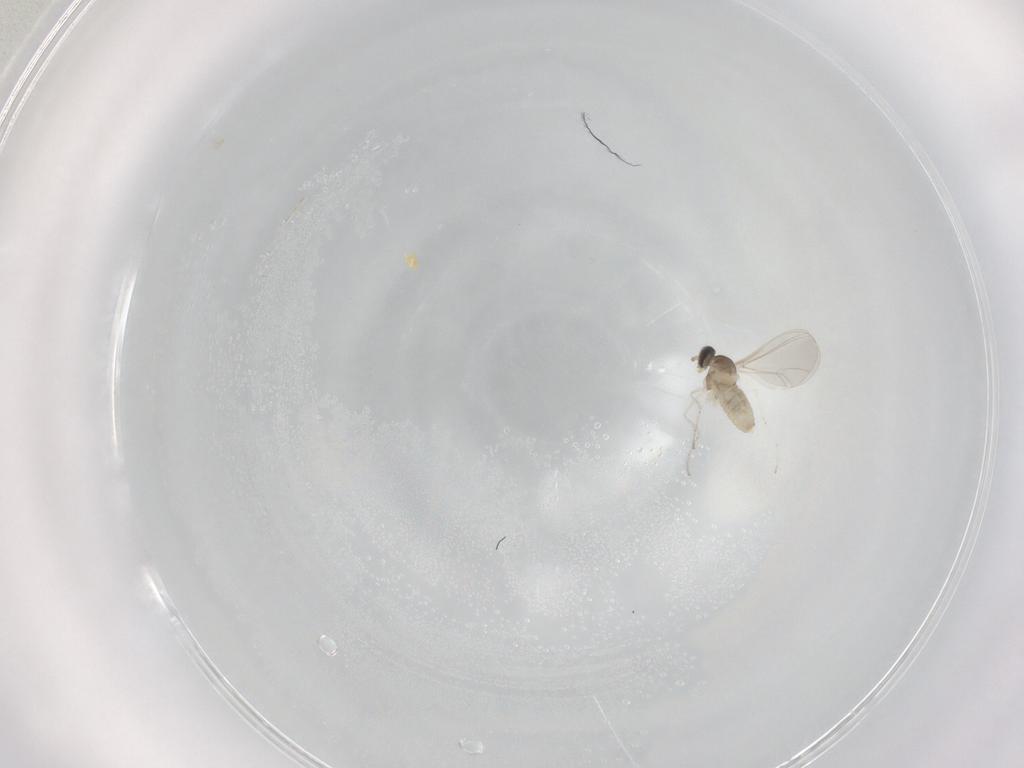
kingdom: Animalia
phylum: Arthropoda
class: Insecta
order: Diptera
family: Cecidomyiidae
